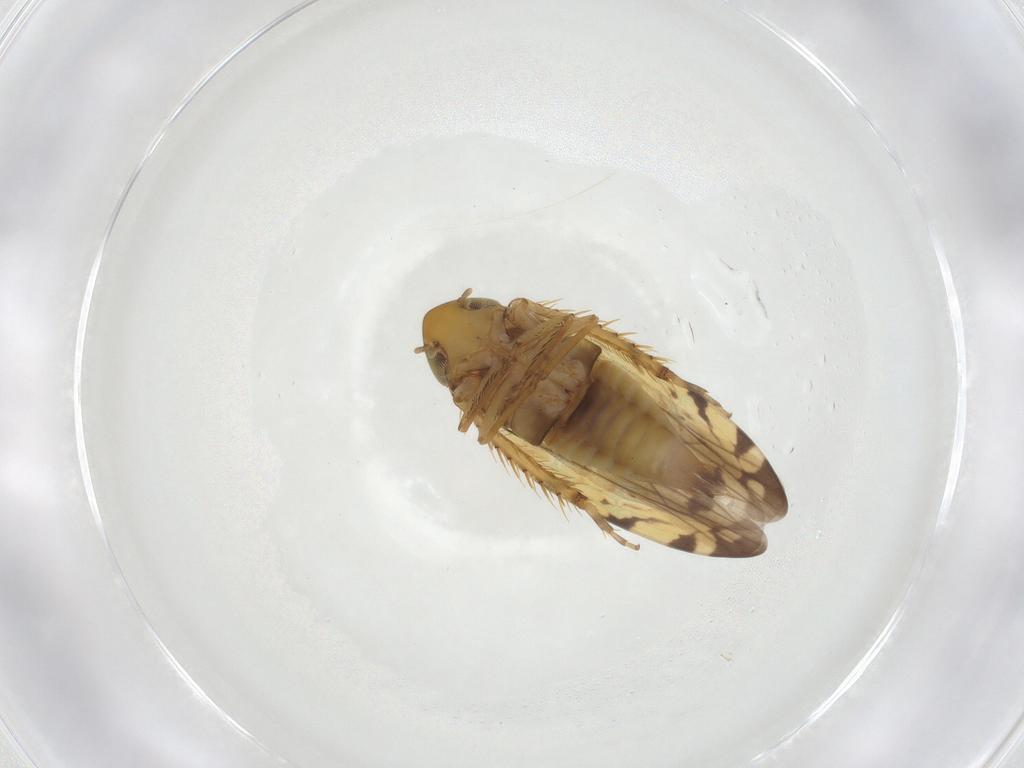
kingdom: Animalia
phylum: Arthropoda
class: Insecta
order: Hemiptera
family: Cicadellidae
